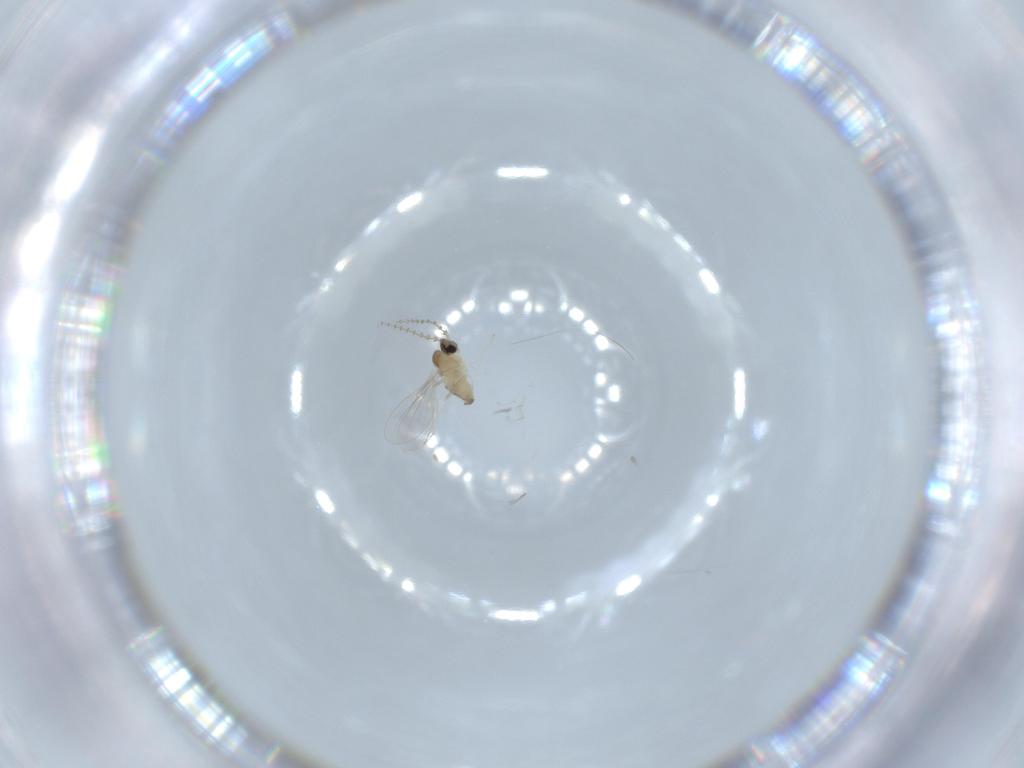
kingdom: Animalia
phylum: Arthropoda
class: Insecta
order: Diptera
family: Cecidomyiidae
